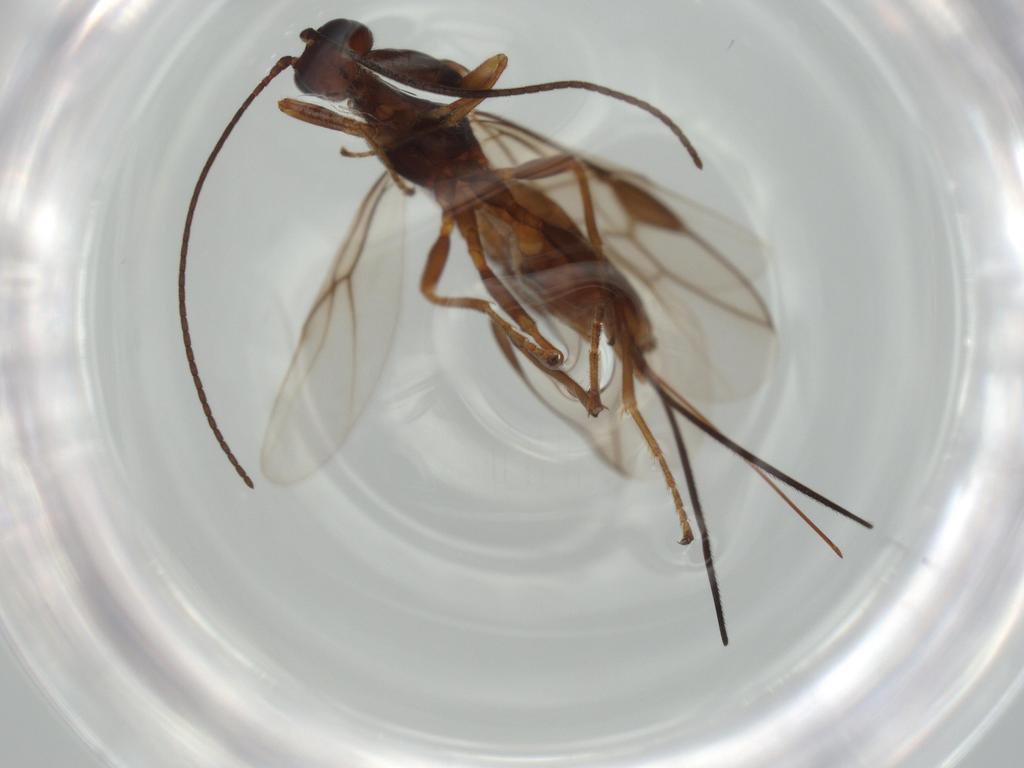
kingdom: Animalia
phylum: Arthropoda
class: Insecta
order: Hymenoptera
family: Braconidae
